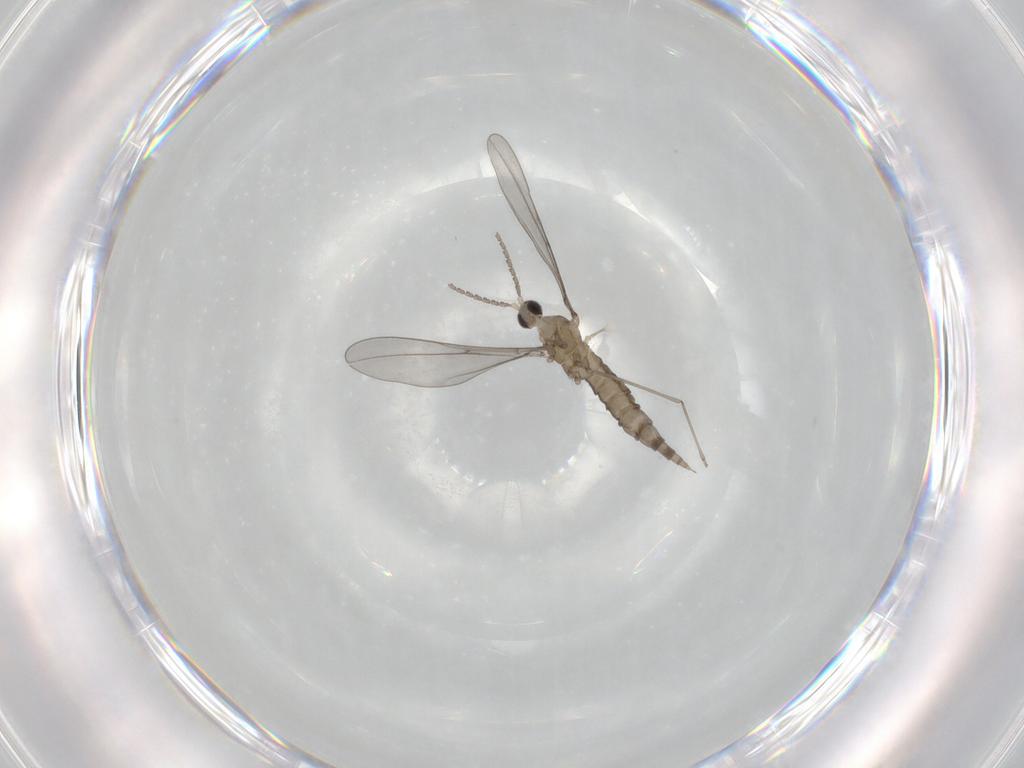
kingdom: Animalia
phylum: Arthropoda
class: Insecta
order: Diptera
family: Cecidomyiidae
